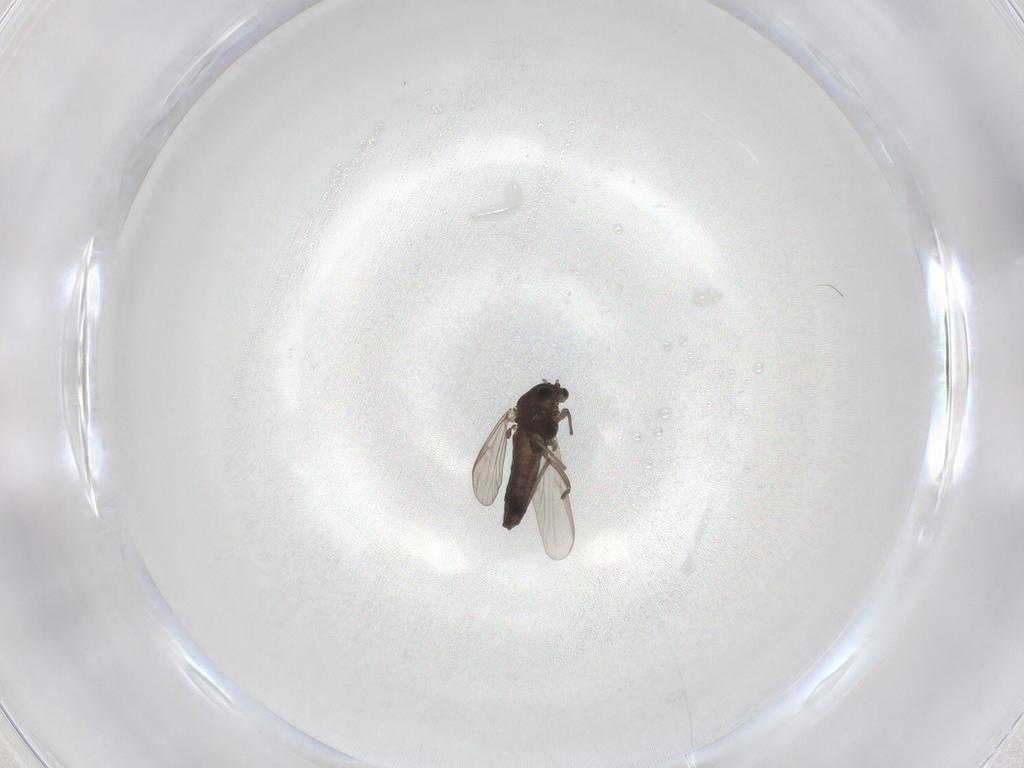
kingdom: Animalia
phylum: Arthropoda
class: Insecta
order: Diptera
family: Chironomidae
